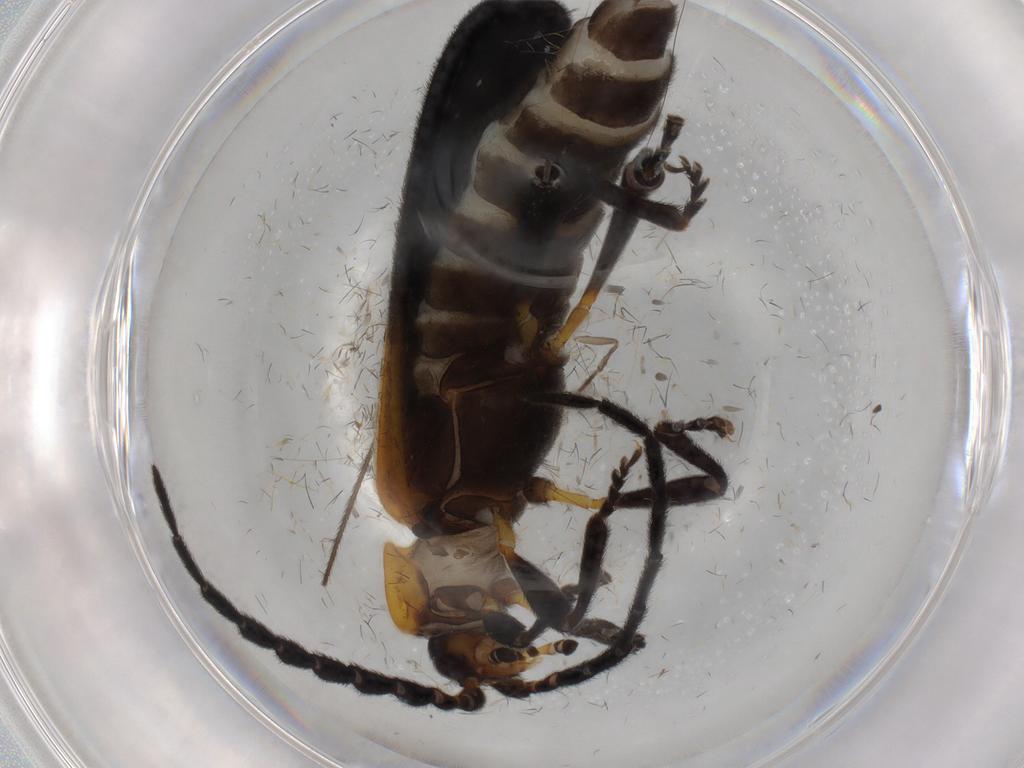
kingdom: Animalia
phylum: Arthropoda
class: Insecta
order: Coleoptera
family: Lycidae
